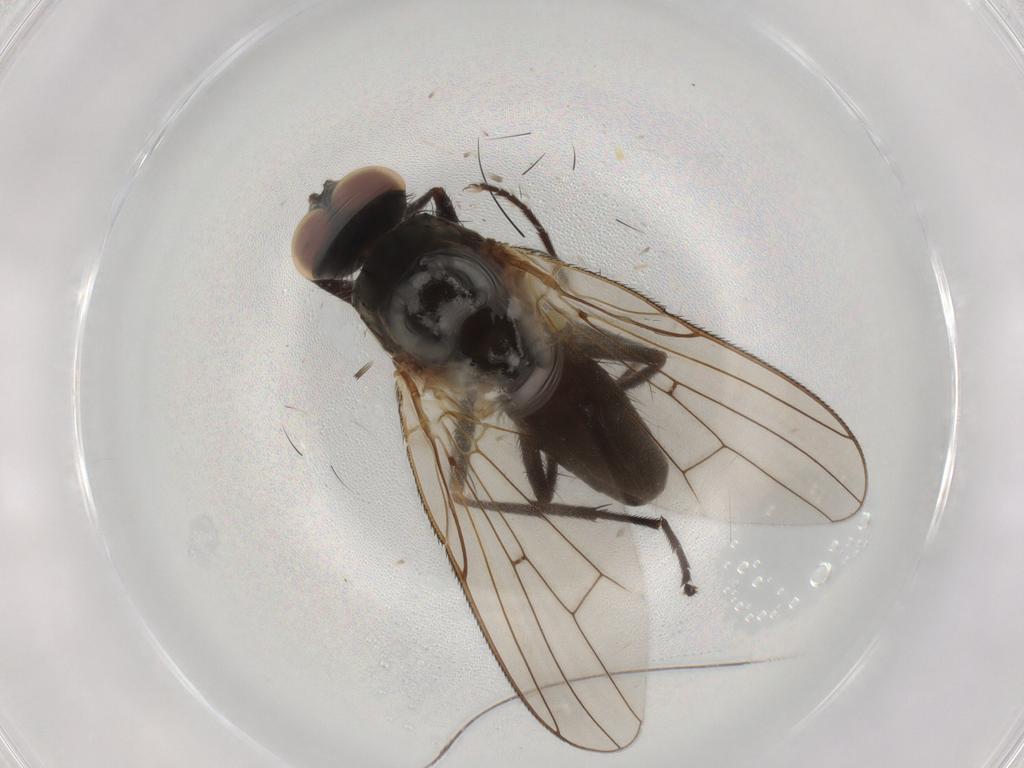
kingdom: Animalia
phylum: Arthropoda
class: Insecta
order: Diptera
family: Anthomyiidae
